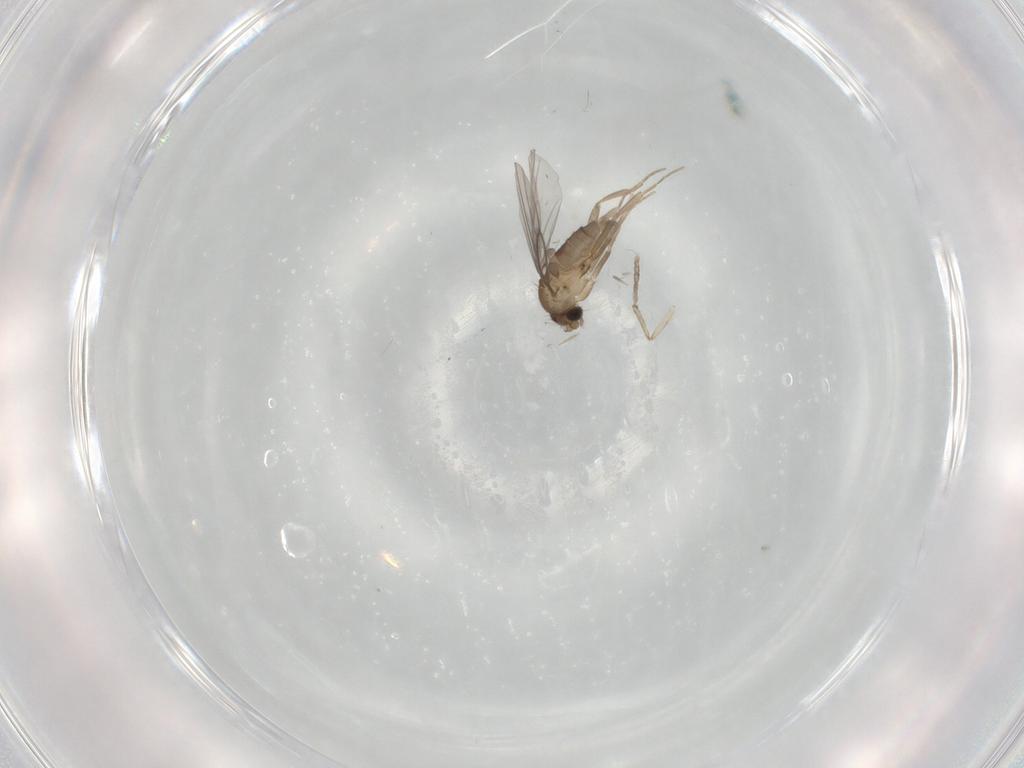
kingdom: Animalia
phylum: Arthropoda
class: Insecta
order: Diptera
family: Psychodidae
